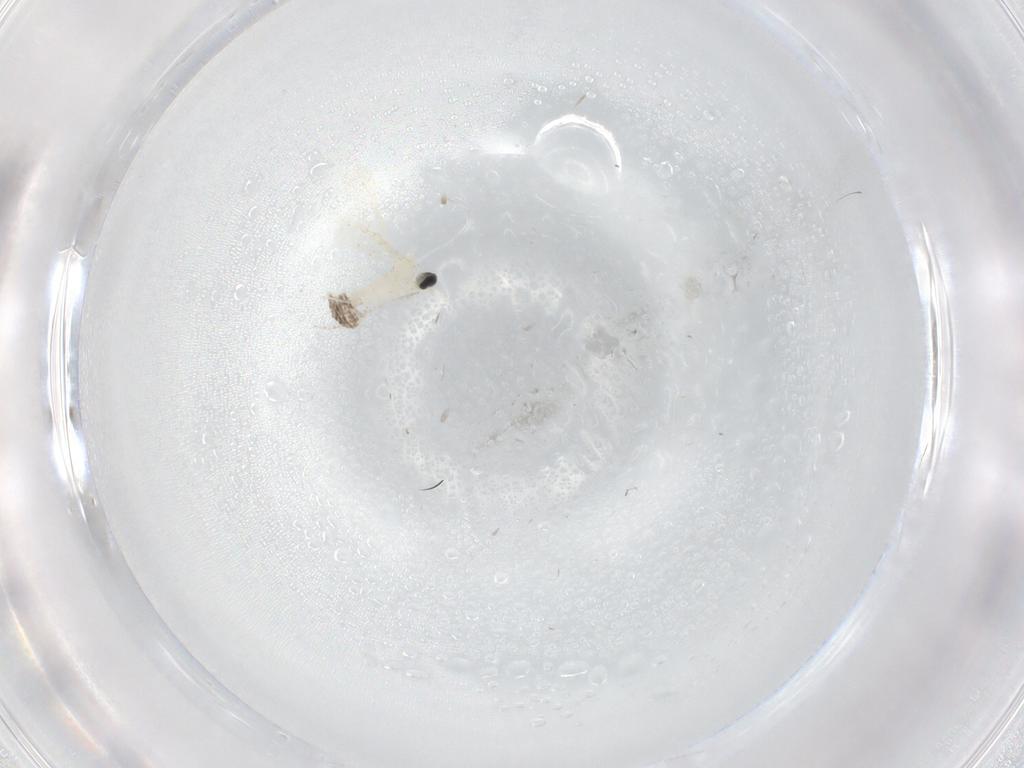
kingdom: Animalia
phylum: Arthropoda
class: Insecta
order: Diptera
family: Cecidomyiidae
